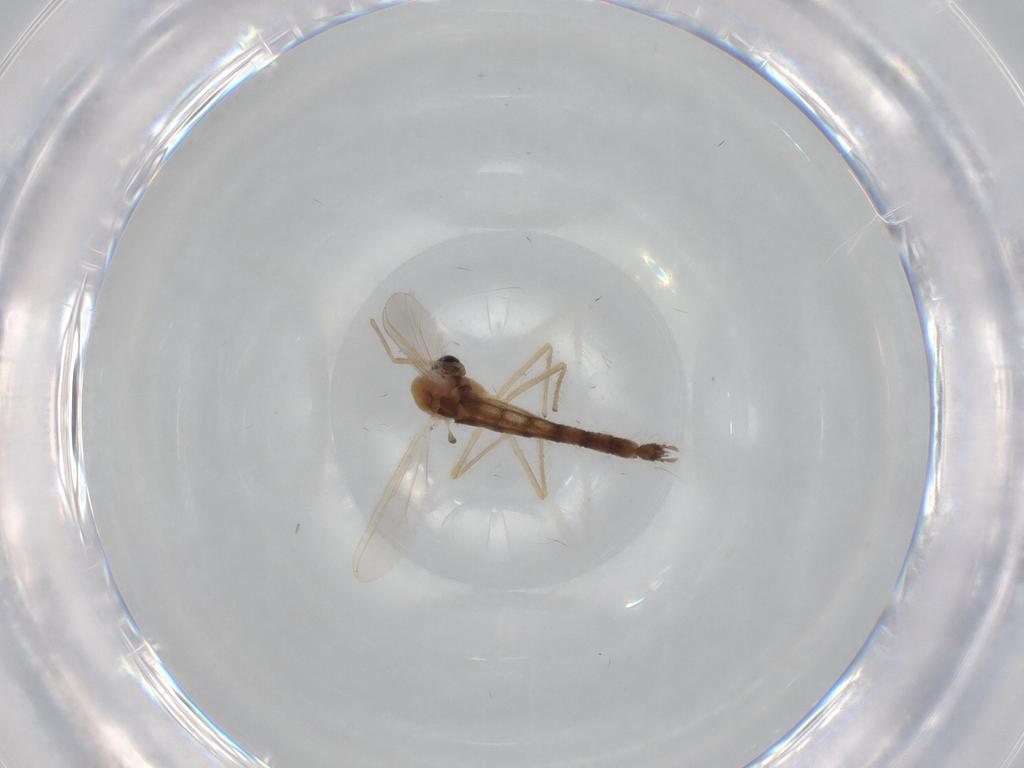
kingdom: Animalia
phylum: Arthropoda
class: Insecta
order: Diptera
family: Chironomidae
